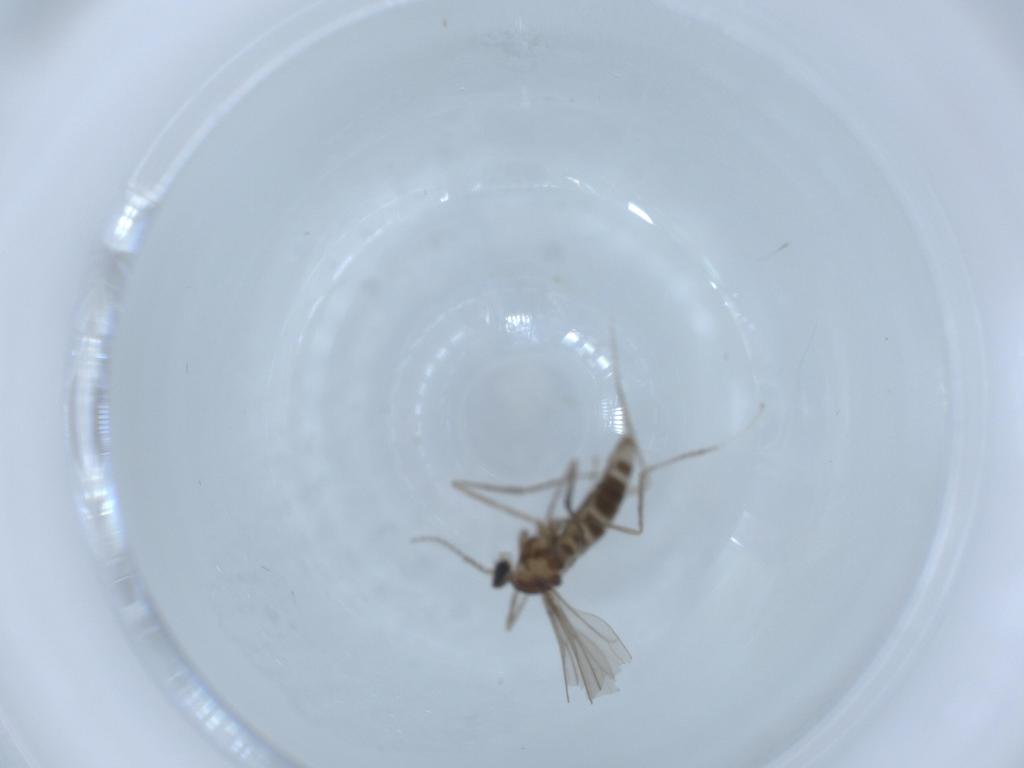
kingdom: Animalia
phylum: Arthropoda
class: Insecta
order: Diptera
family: Cecidomyiidae
